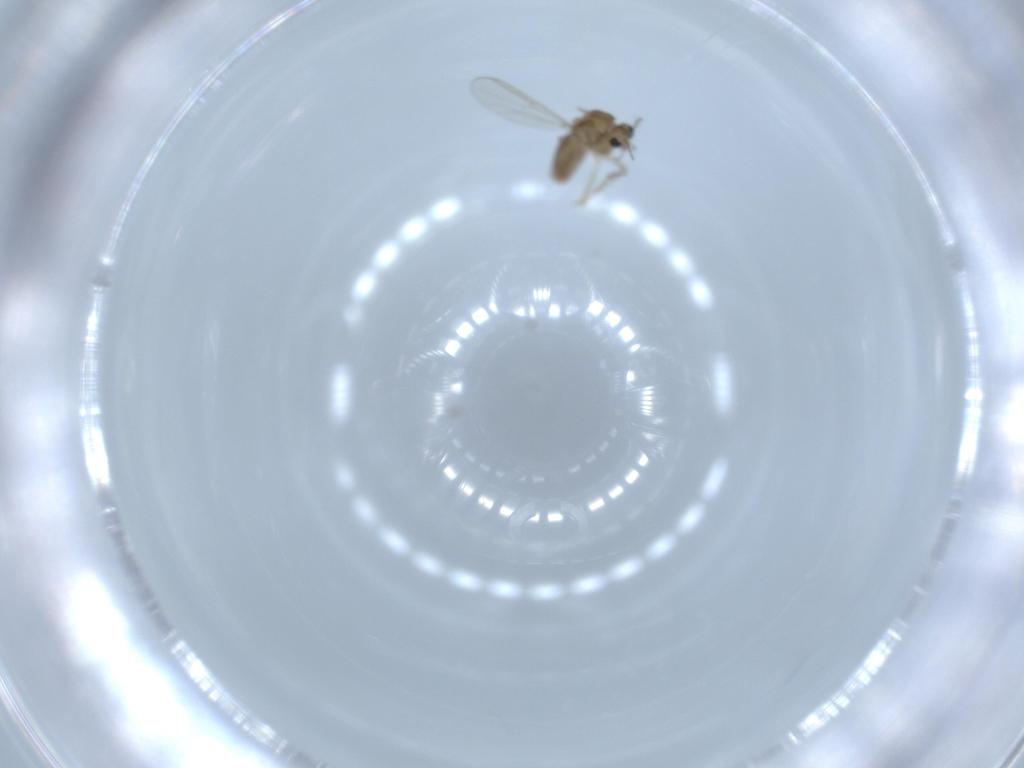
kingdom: Animalia
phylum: Arthropoda
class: Insecta
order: Diptera
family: Chironomidae
